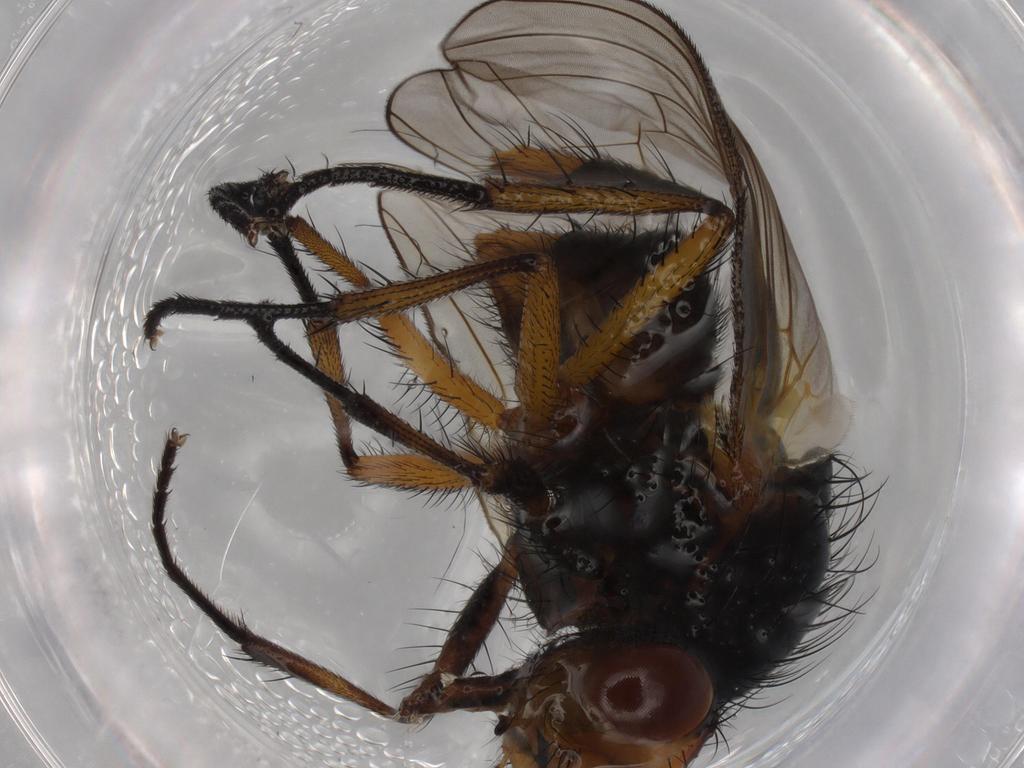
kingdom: Animalia
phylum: Arthropoda
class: Insecta
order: Diptera
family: Anthomyiidae
